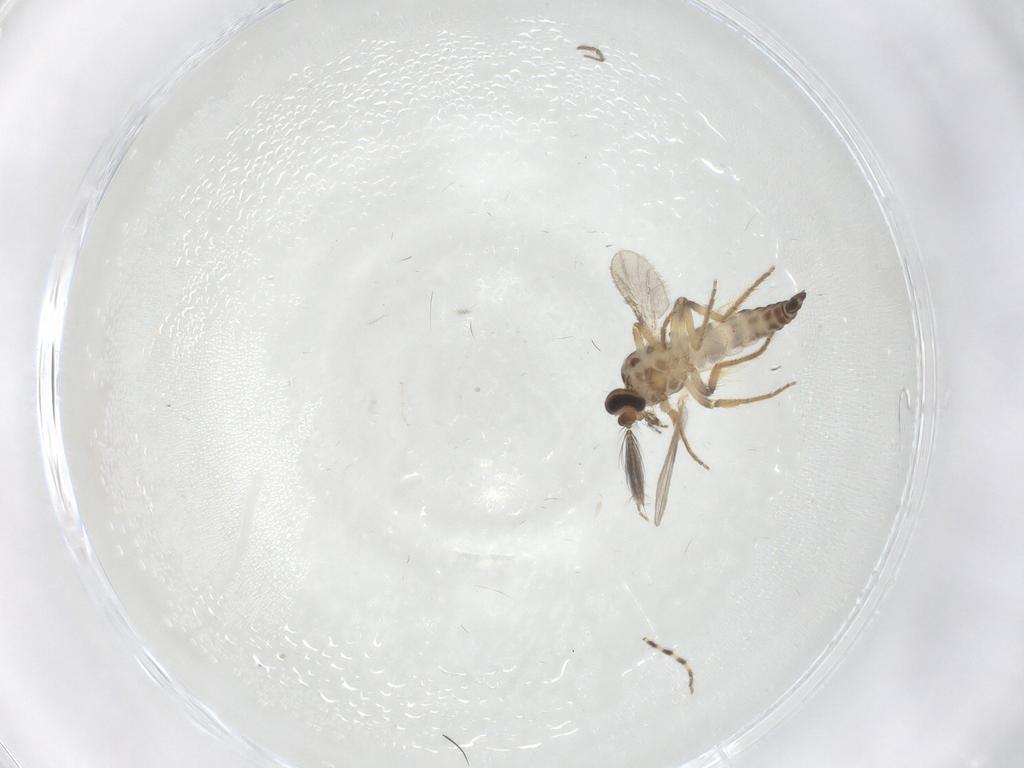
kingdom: Animalia
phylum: Arthropoda
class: Insecta
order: Diptera
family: Ceratopogonidae
